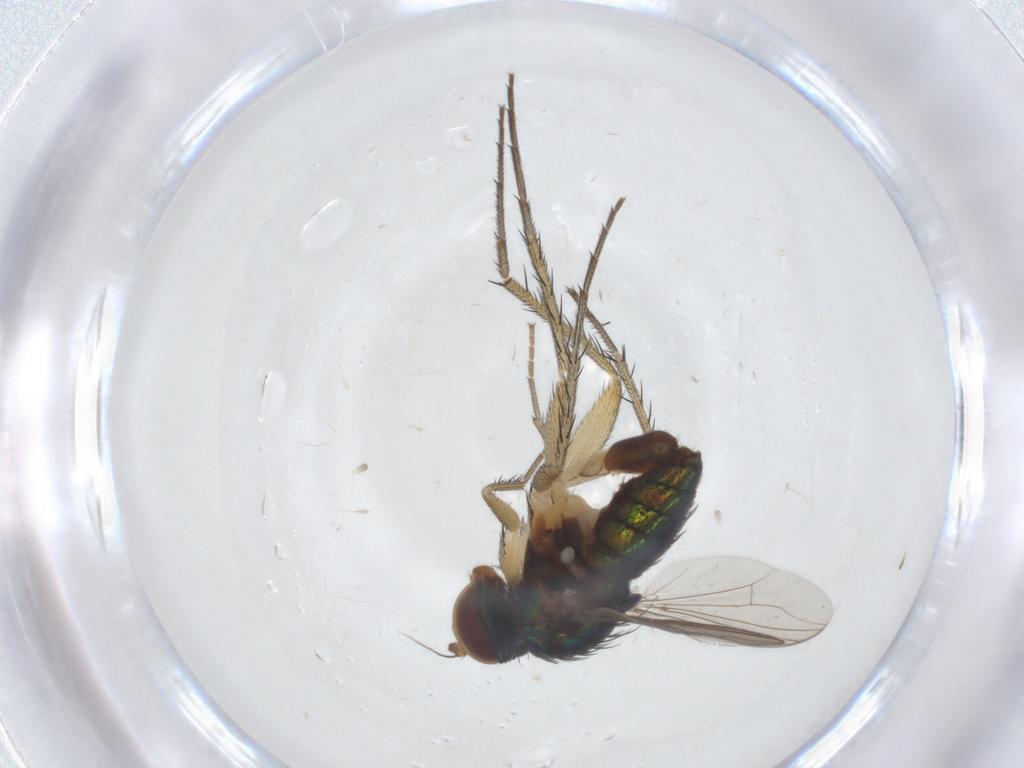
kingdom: Animalia
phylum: Arthropoda
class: Insecta
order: Diptera
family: Dolichopodidae
